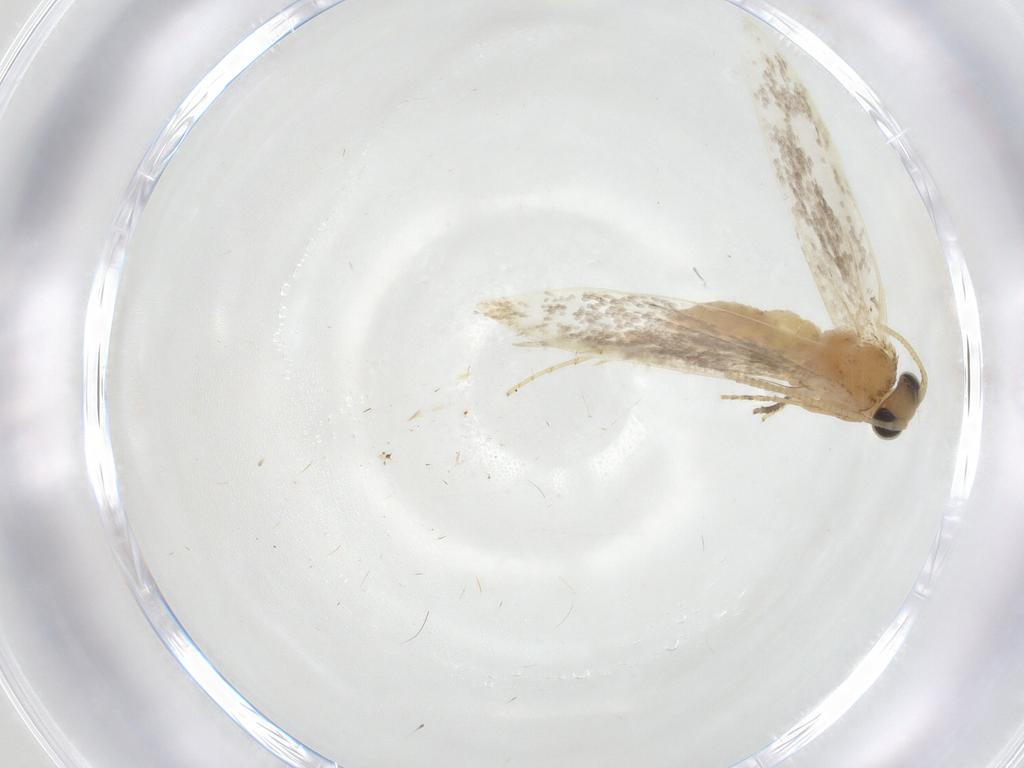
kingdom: Animalia
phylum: Arthropoda
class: Insecta
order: Lepidoptera
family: Tineidae
